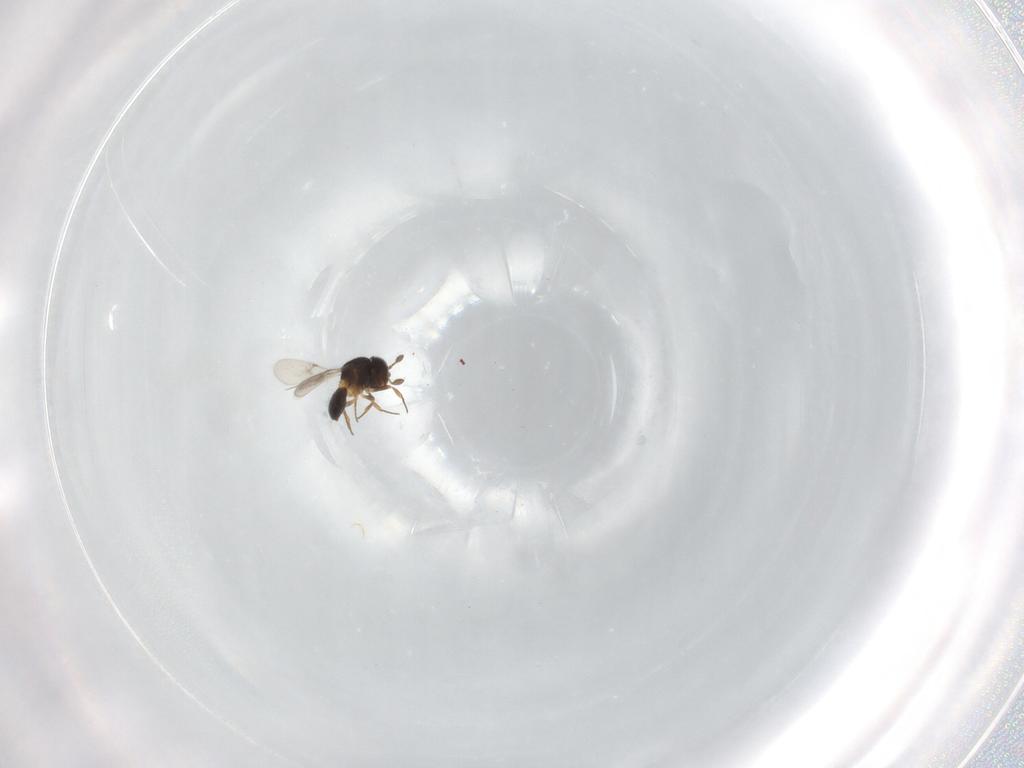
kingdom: Animalia
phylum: Arthropoda
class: Insecta
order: Hymenoptera
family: Scelionidae
